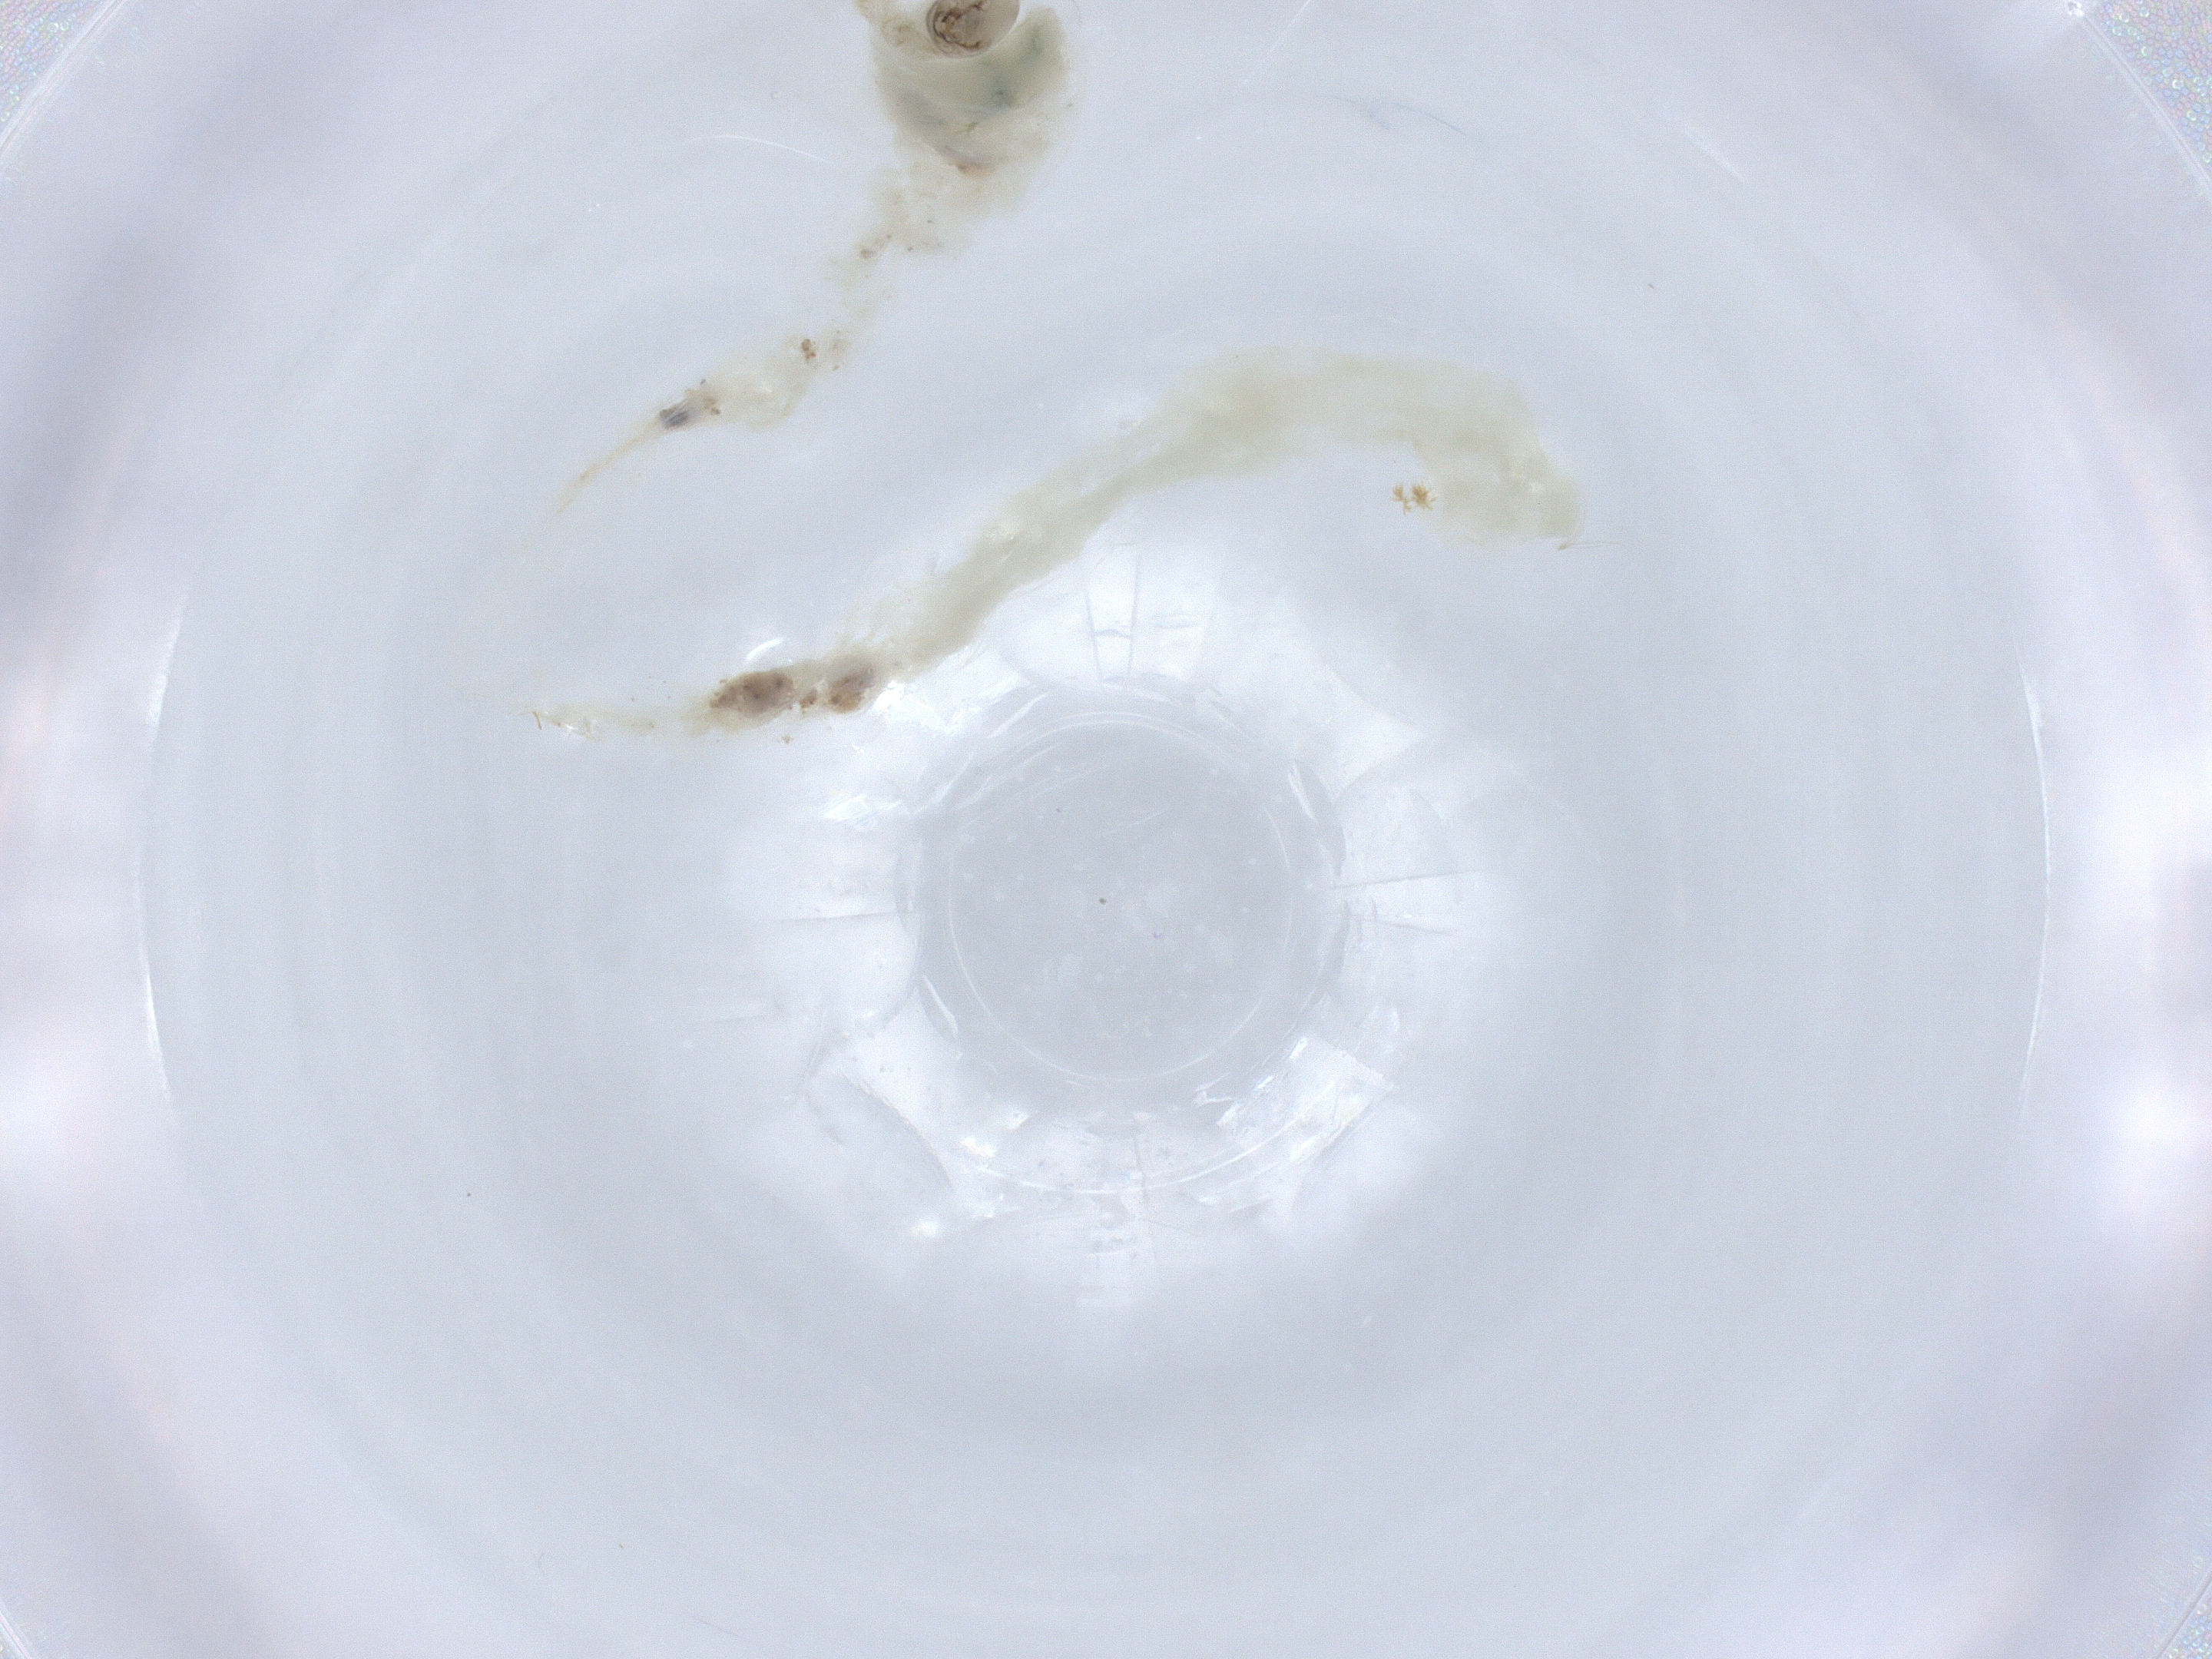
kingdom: Animalia
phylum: Arthropoda
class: Insecta
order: Diptera
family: Chironomidae
